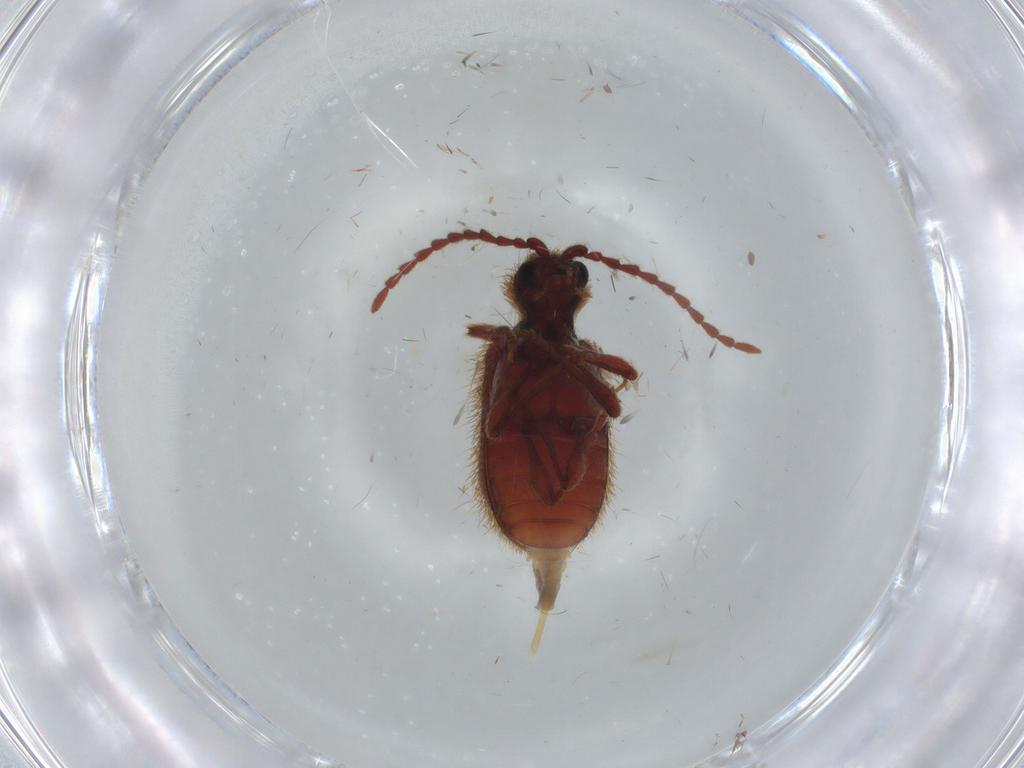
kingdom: Animalia
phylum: Arthropoda
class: Insecta
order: Coleoptera
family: Ptinidae
